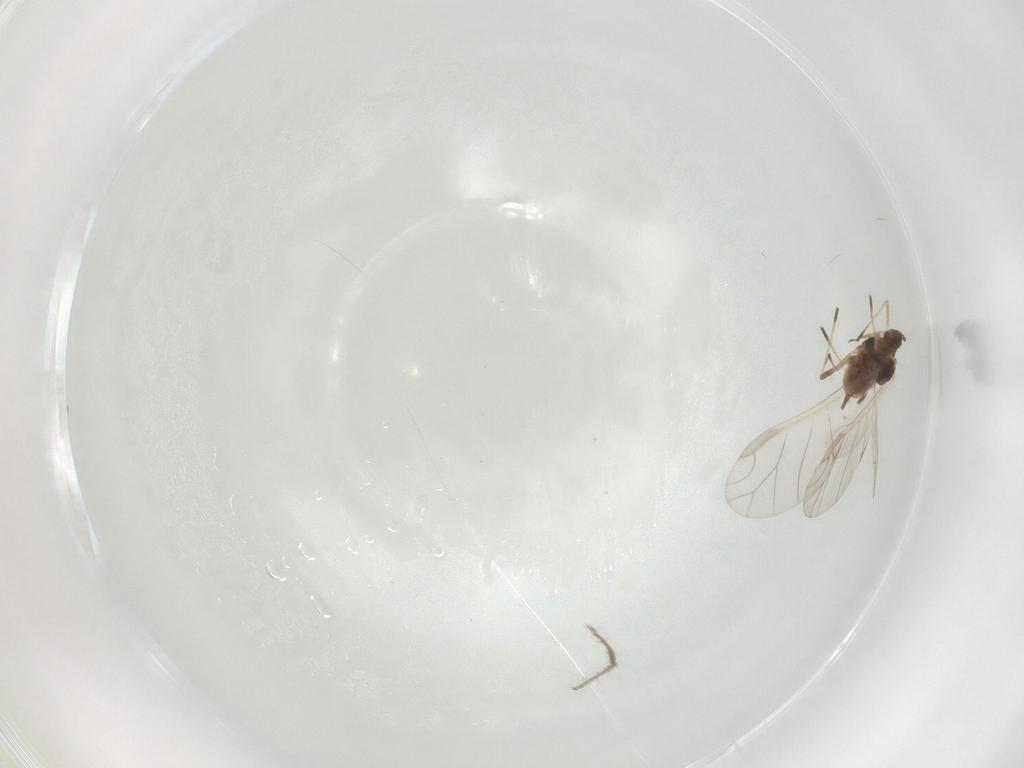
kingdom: Animalia
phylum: Arthropoda
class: Insecta
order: Hemiptera
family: Aphididae
